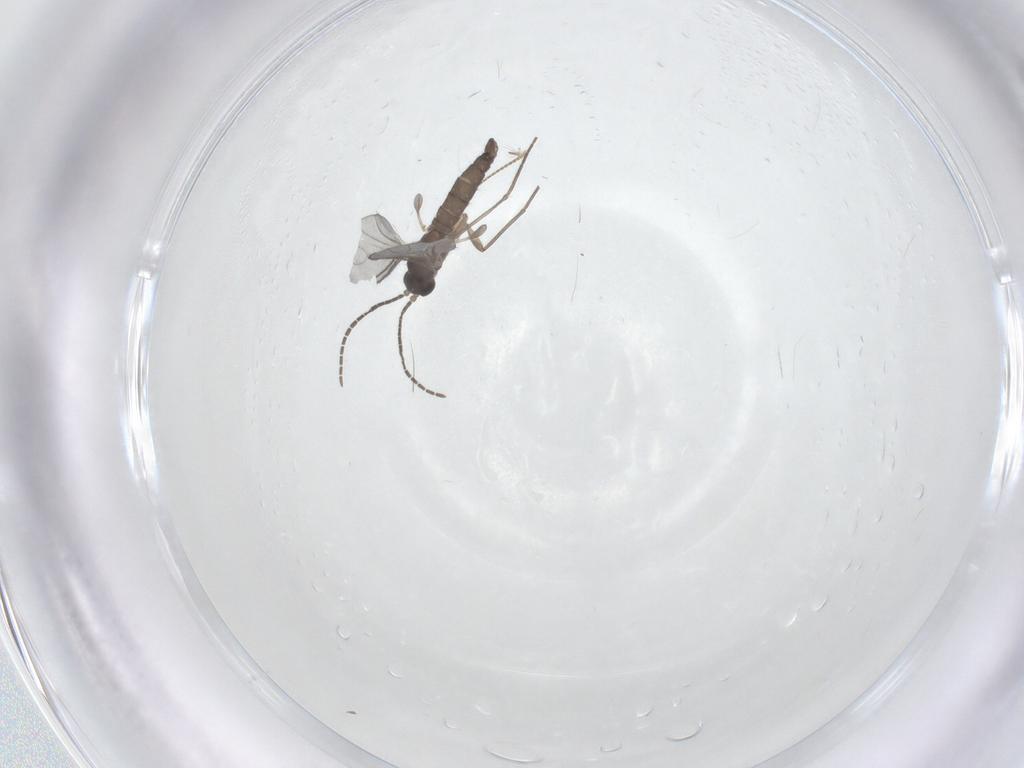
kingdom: Animalia
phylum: Arthropoda
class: Insecta
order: Diptera
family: Chironomidae
